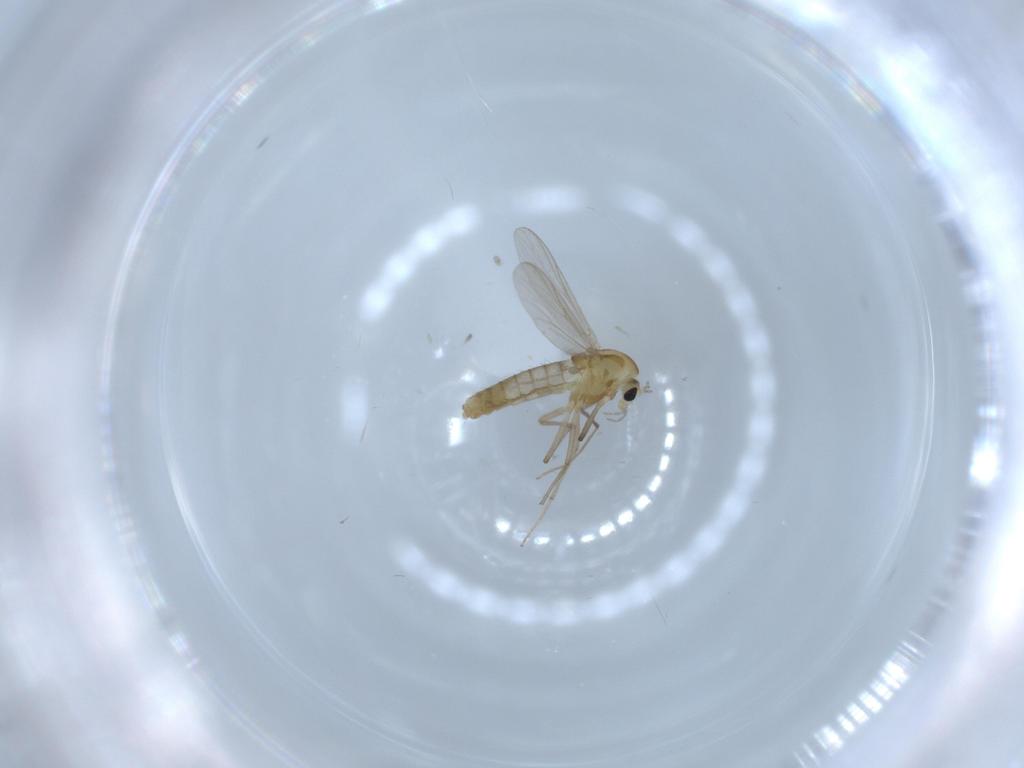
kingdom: Animalia
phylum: Arthropoda
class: Insecta
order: Diptera
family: Chironomidae
